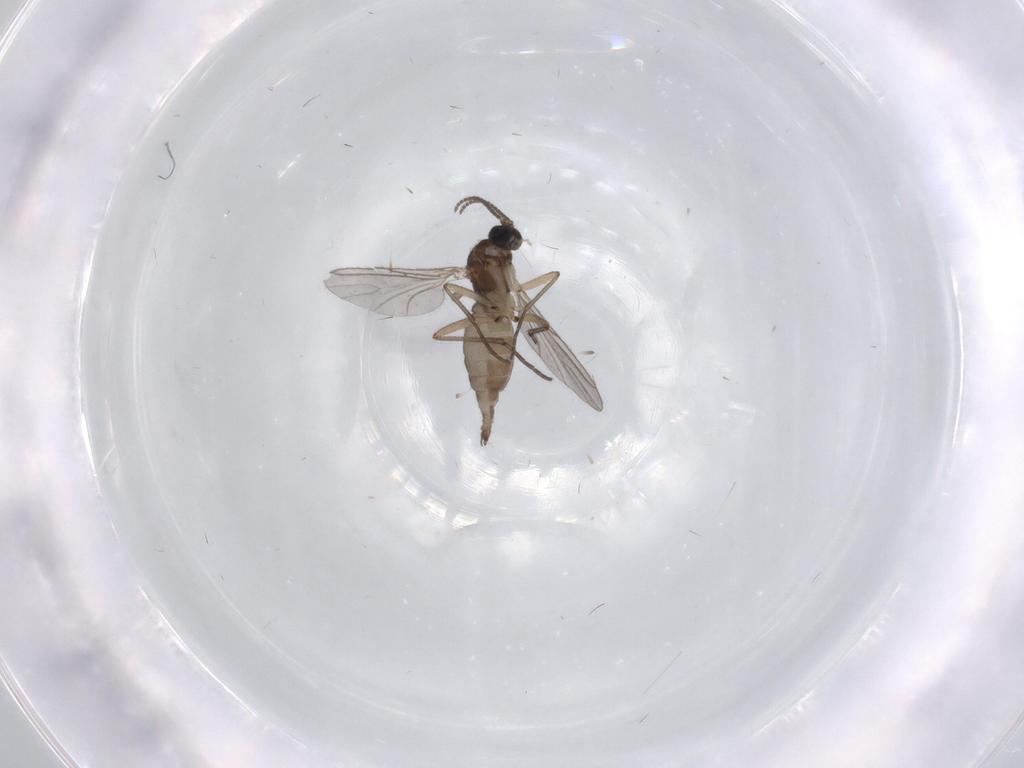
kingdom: Animalia
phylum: Arthropoda
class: Insecta
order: Diptera
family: Sciaridae
